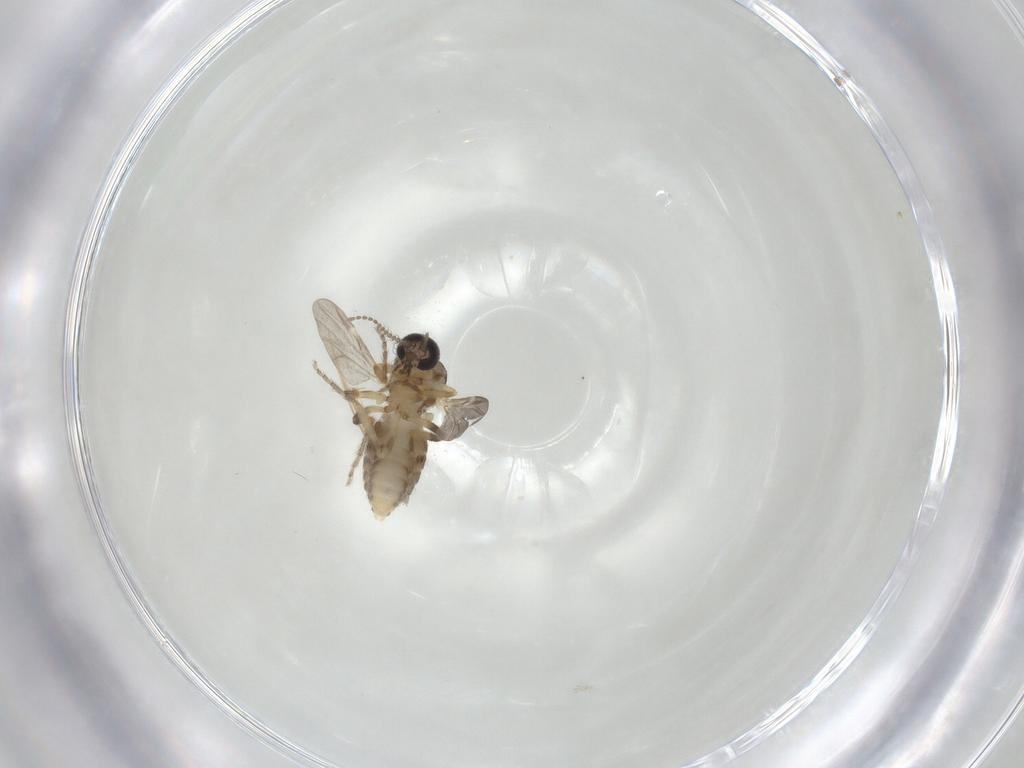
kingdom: Animalia
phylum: Arthropoda
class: Insecta
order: Diptera
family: Ceratopogonidae
